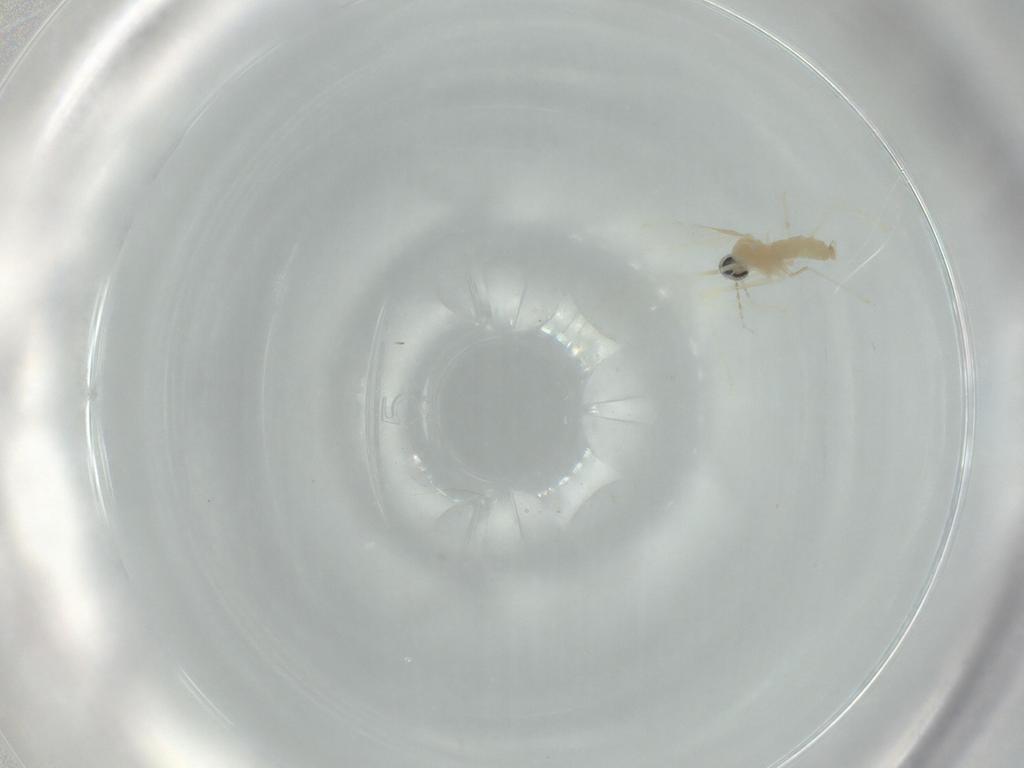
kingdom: Animalia
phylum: Arthropoda
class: Insecta
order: Diptera
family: Cecidomyiidae
